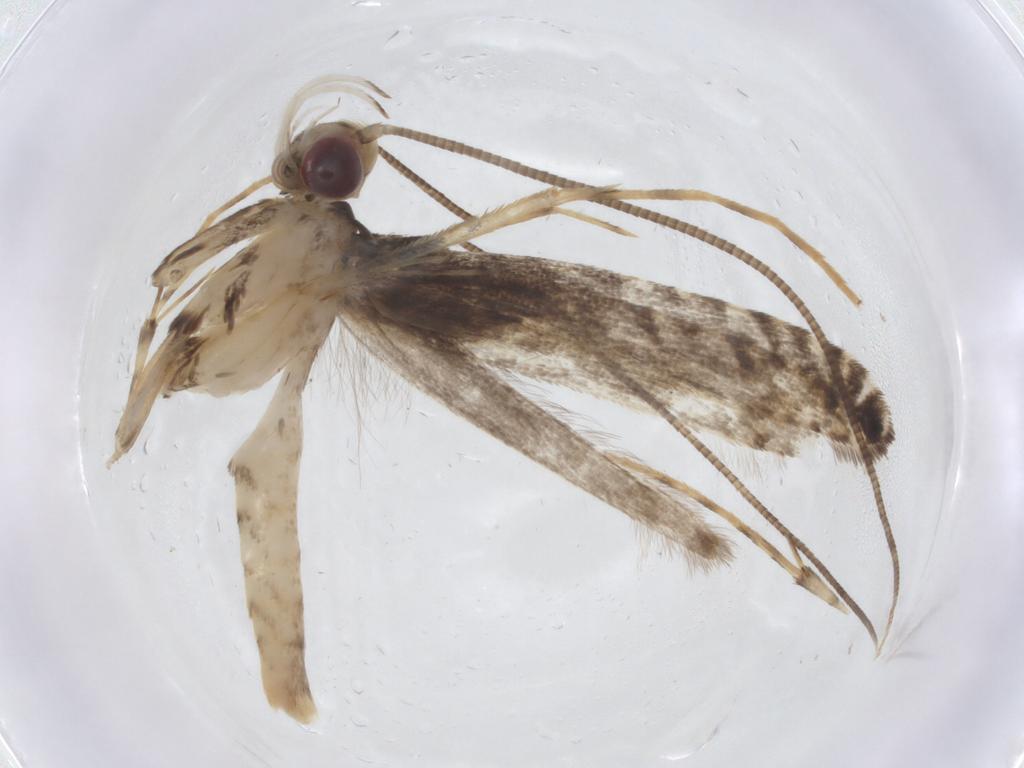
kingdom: Animalia
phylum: Arthropoda
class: Insecta
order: Lepidoptera
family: Gracillariidae
